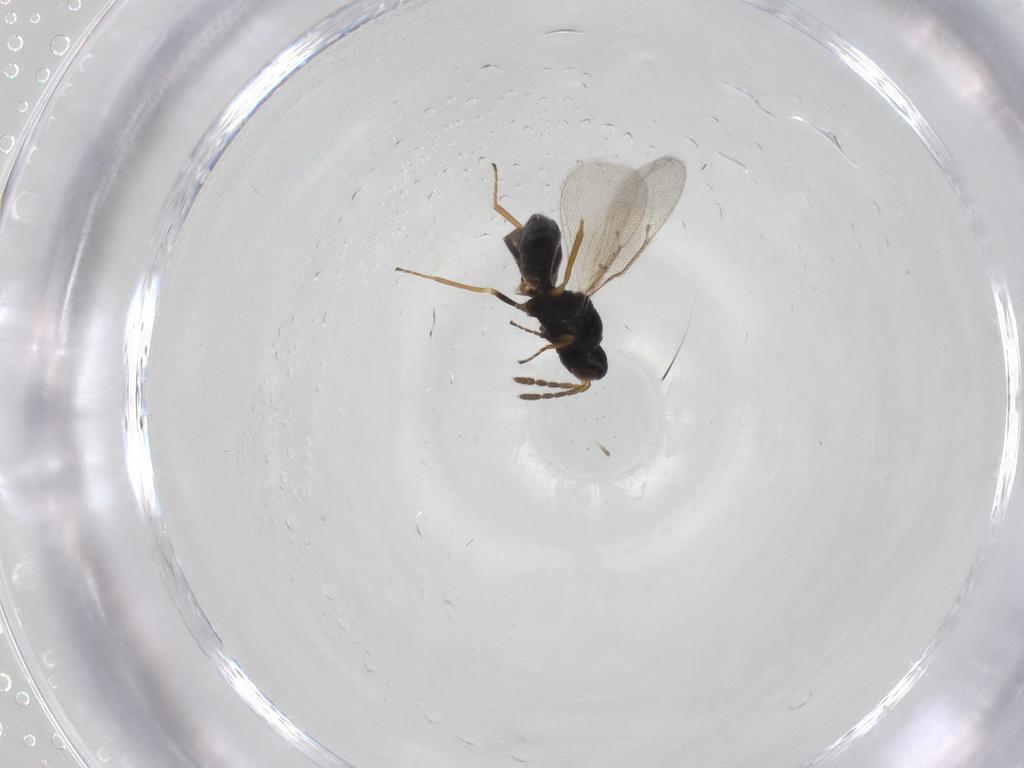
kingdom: Animalia
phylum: Arthropoda
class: Insecta
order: Hymenoptera
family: Eulophidae
